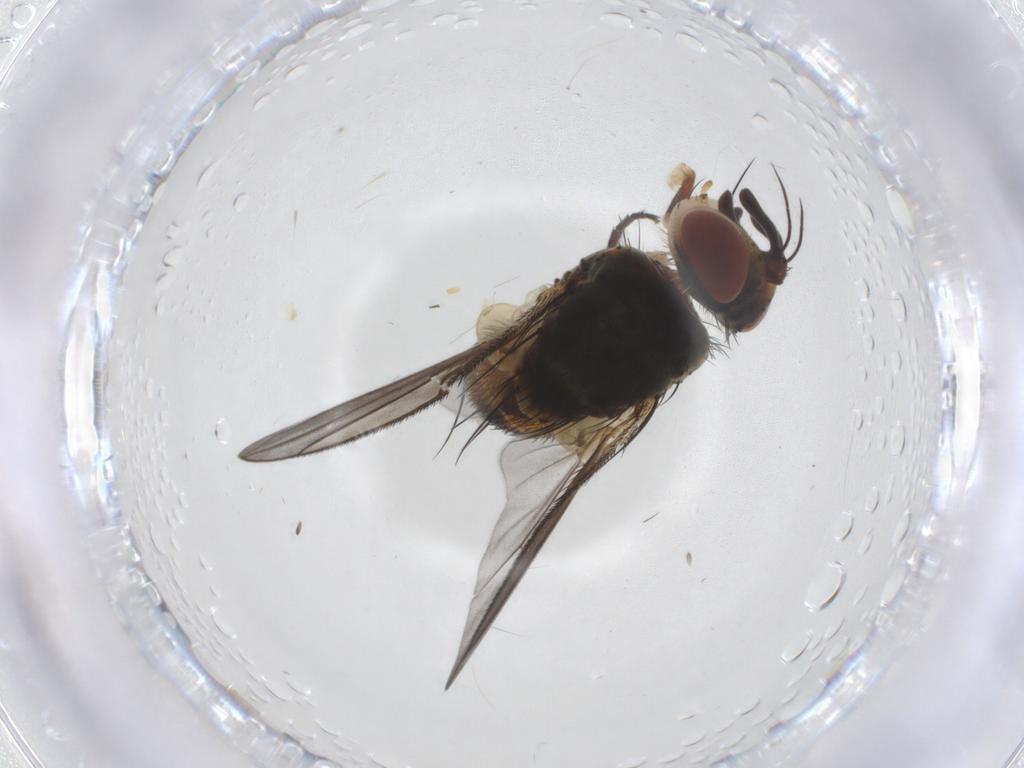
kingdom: Animalia
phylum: Arthropoda
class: Insecta
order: Diptera
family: Tachinidae
